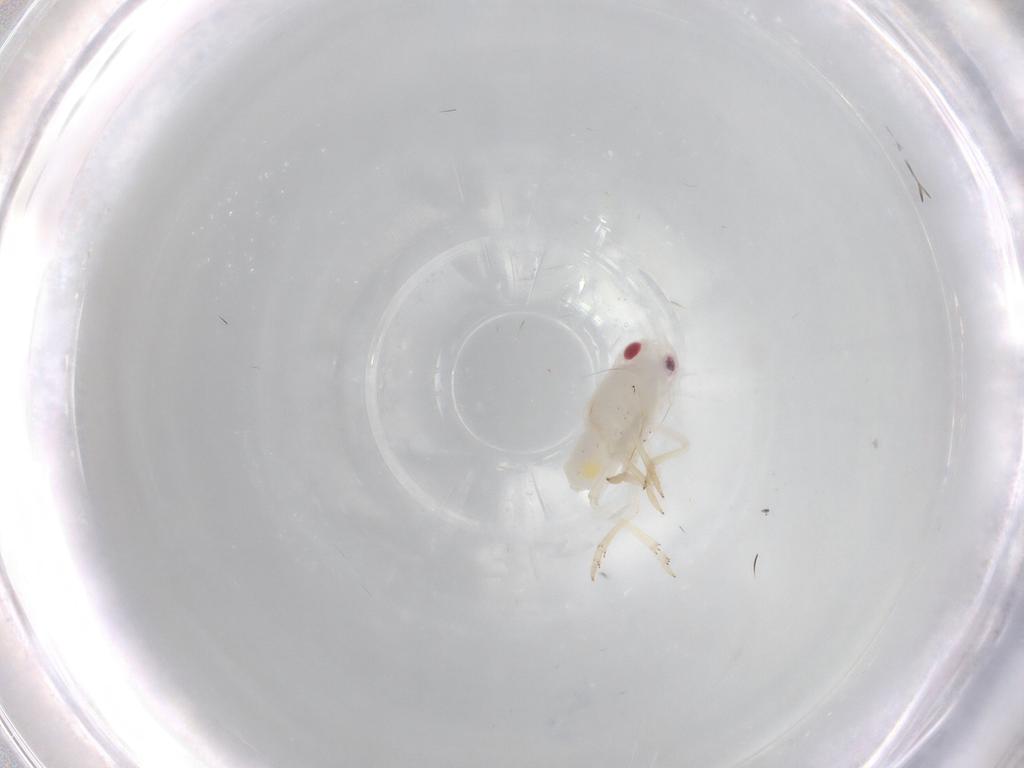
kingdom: Animalia
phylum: Arthropoda
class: Insecta
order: Hemiptera
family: Tropiduchidae
